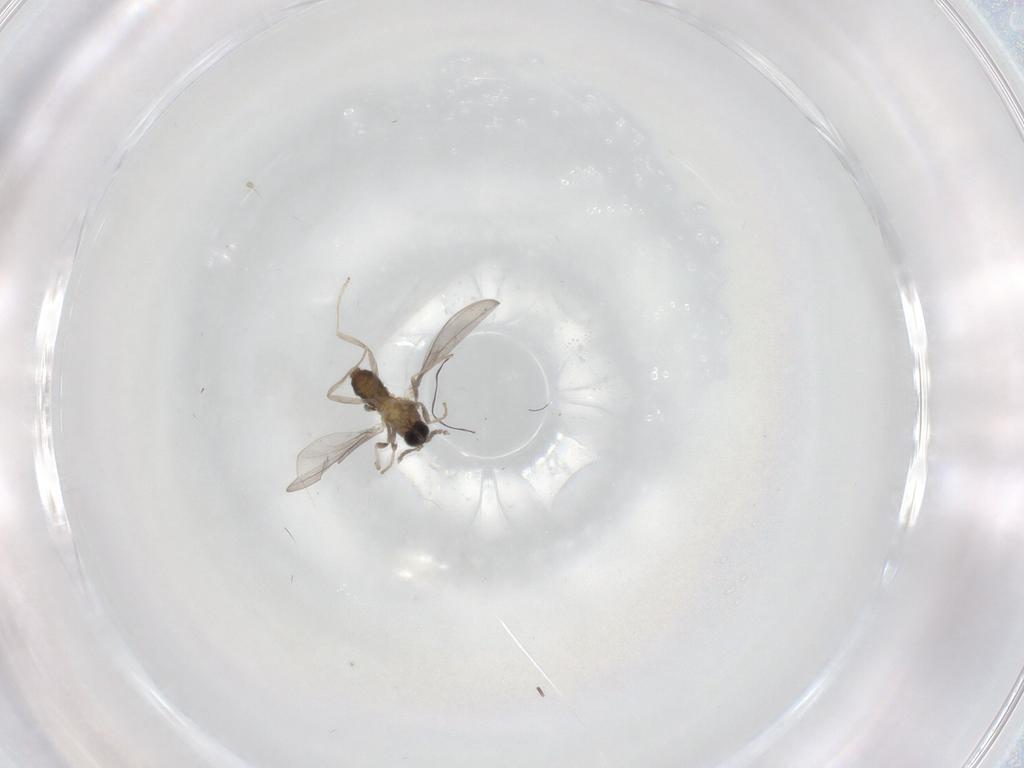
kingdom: Animalia
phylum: Arthropoda
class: Insecta
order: Diptera
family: Cecidomyiidae
